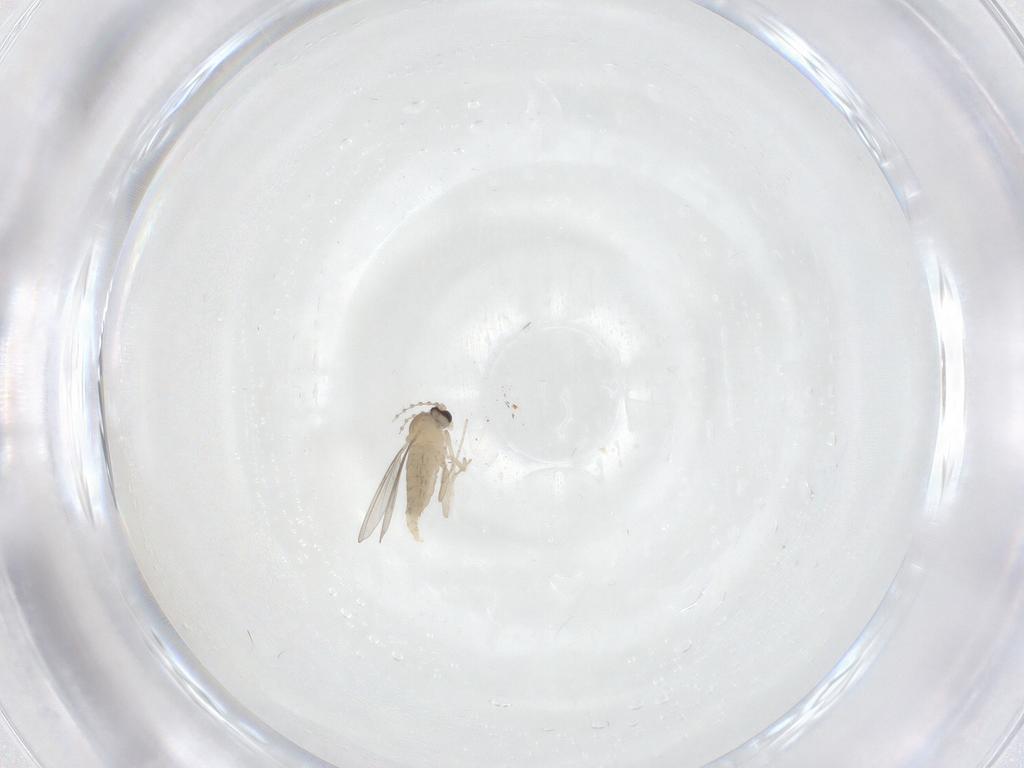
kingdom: Animalia
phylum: Arthropoda
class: Insecta
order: Diptera
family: Cecidomyiidae
